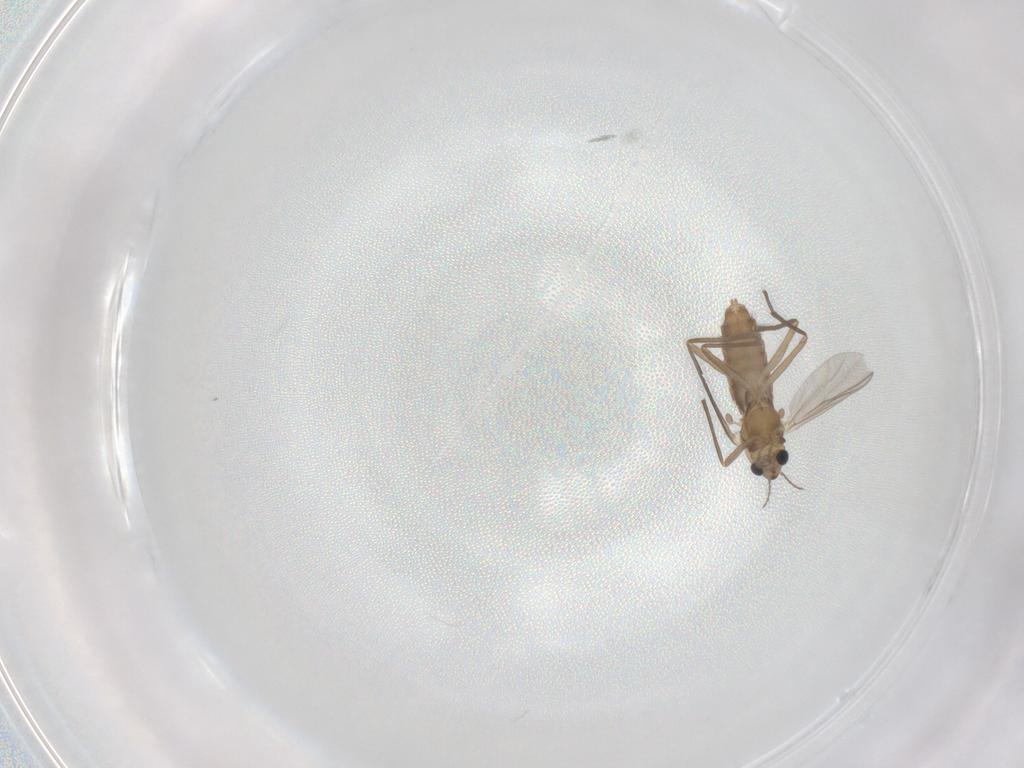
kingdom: Animalia
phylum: Arthropoda
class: Insecta
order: Diptera
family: Chironomidae
